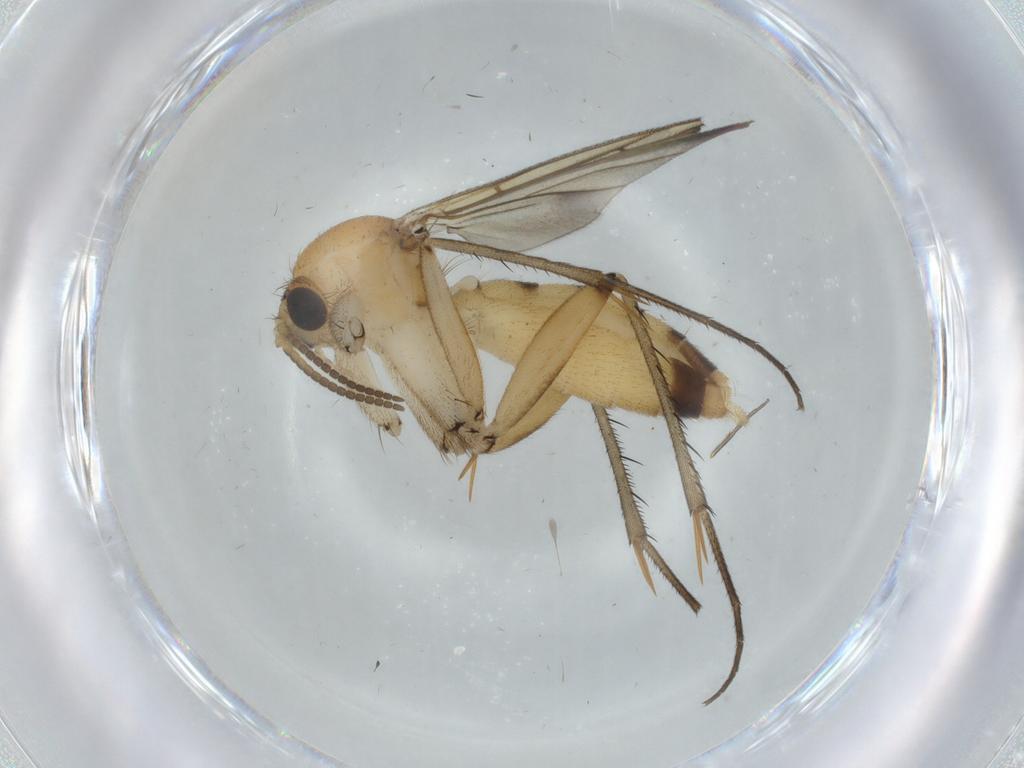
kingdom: Animalia
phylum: Arthropoda
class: Insecta
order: Diptera
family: Mycetophilidae
